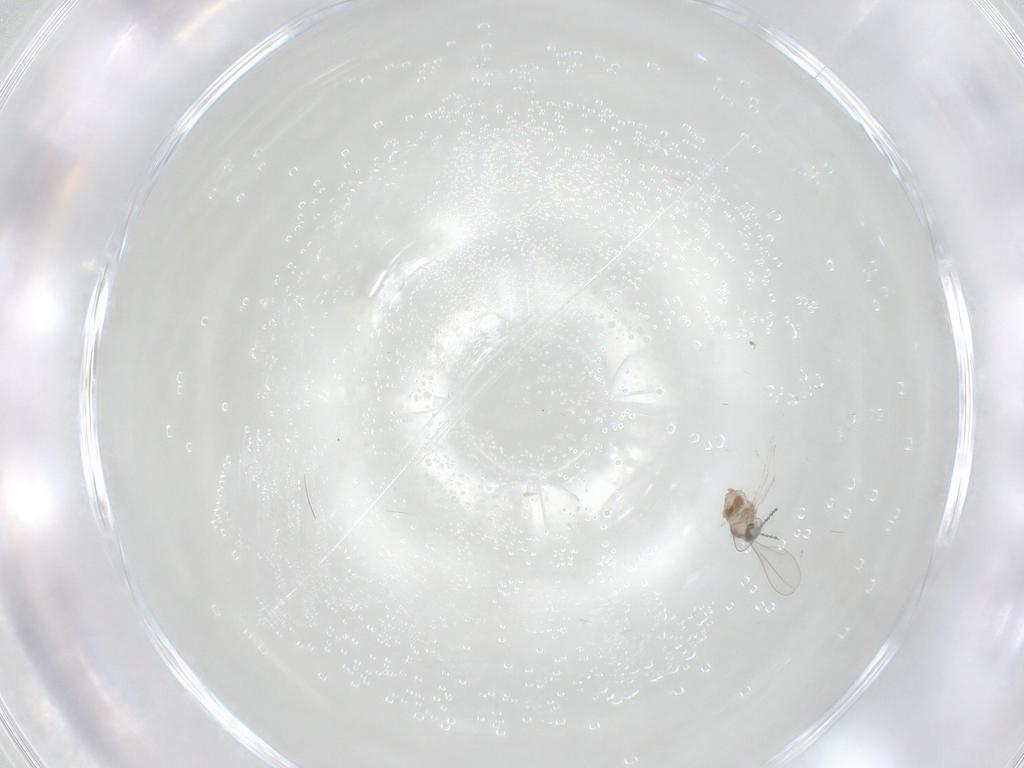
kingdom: Animalia
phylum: Arthropoda
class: Insecta
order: Diptera
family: Cecidomyiidae
